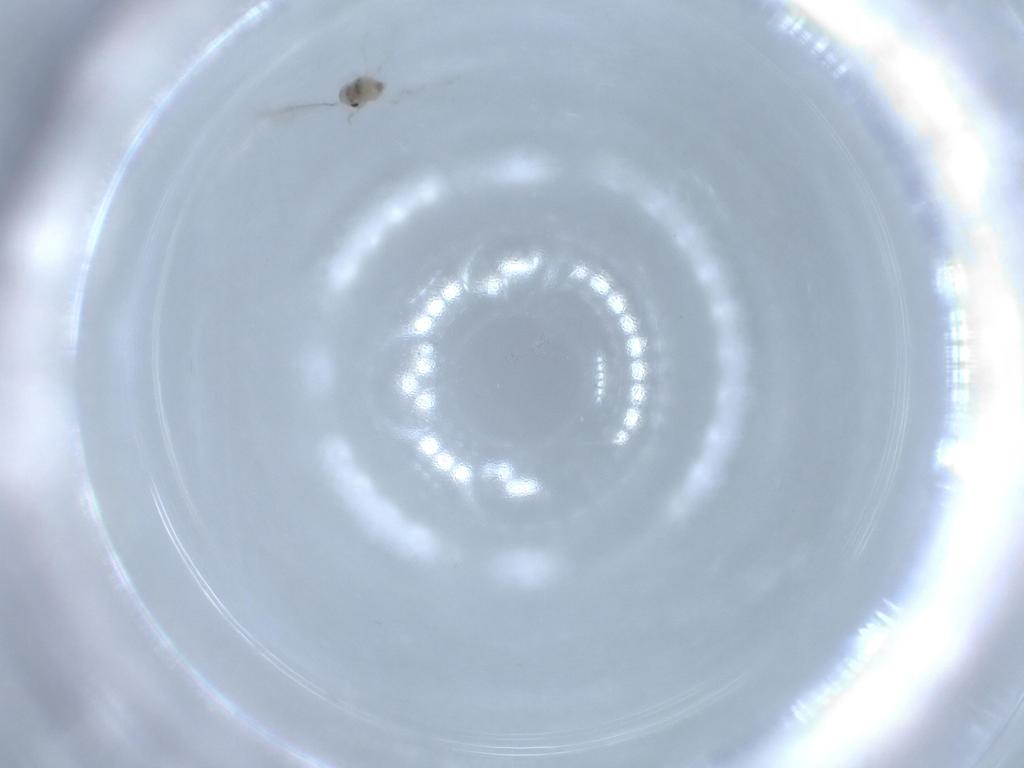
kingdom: Animalia
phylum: Arthropoda
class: Insecta
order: Diptera
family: Cecidomyiidae
